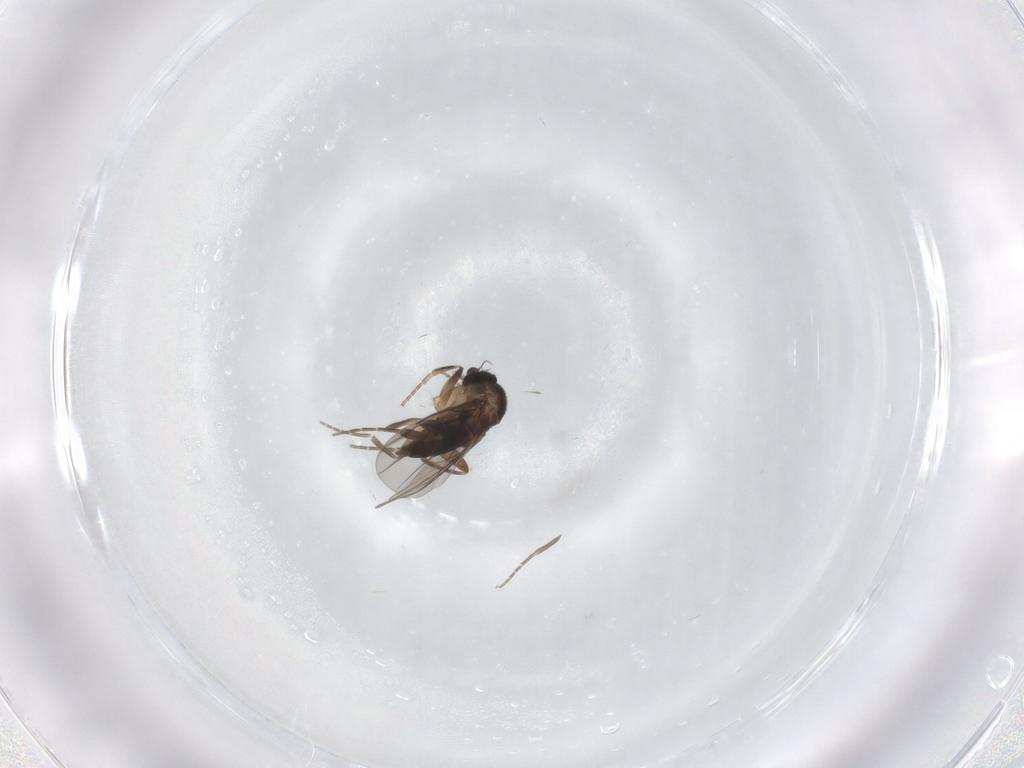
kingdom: Animalia
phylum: Arthropoda
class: Insecta
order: Diptera
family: Phoridae
